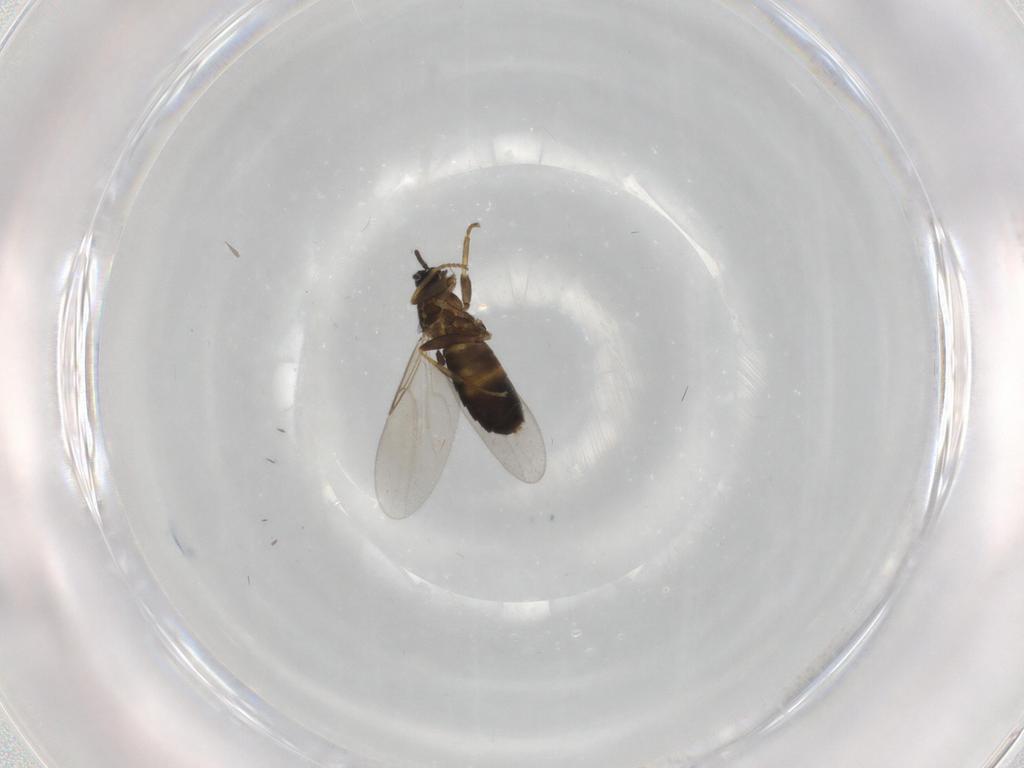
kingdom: Animalia
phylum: Arthropoda
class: Insecta
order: Diptera
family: Scatopsidae
